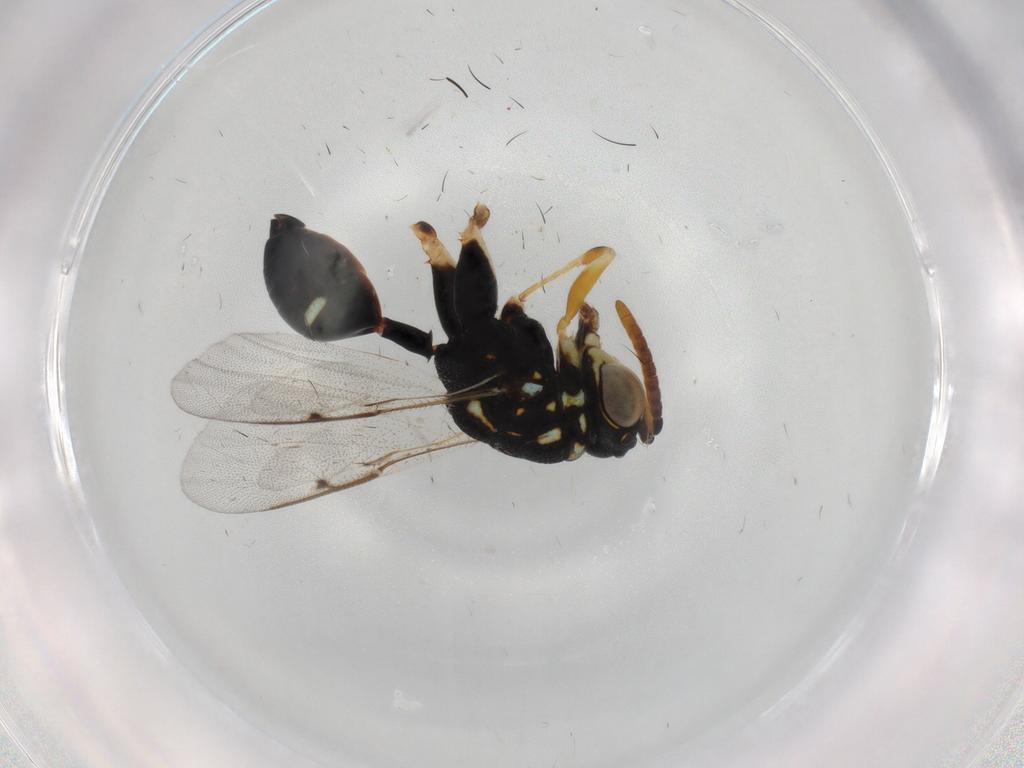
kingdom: Animalia
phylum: Arthropoda
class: Insecta
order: Hymenoptera
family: Chalcididae
